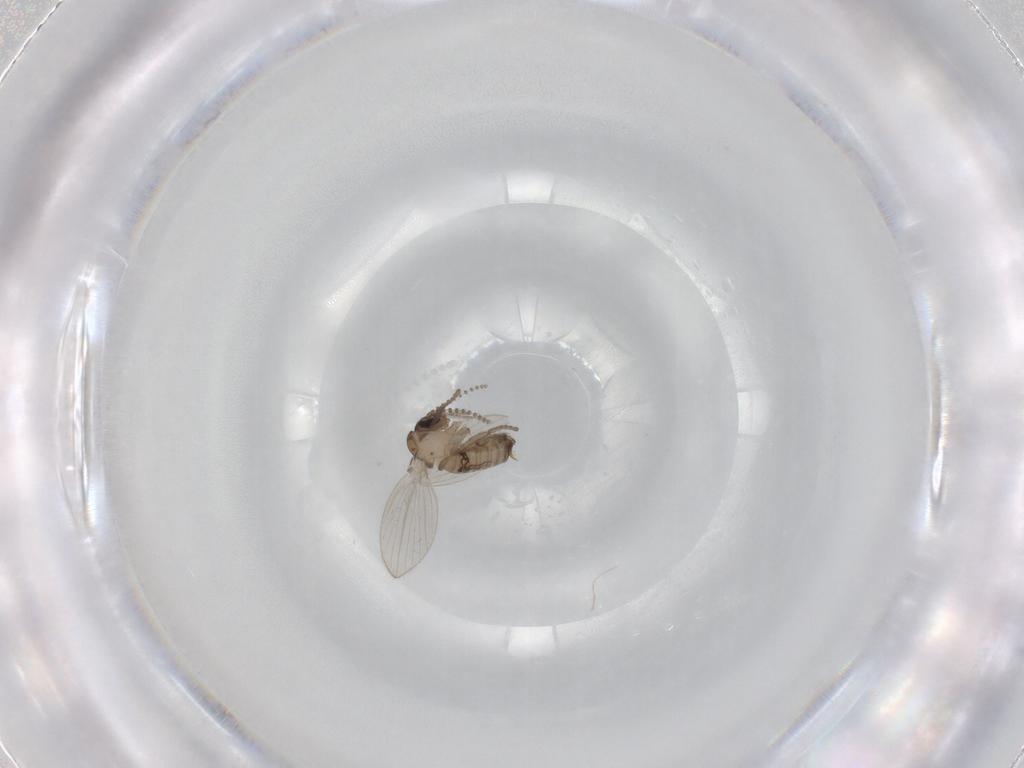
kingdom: Animalia
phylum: Arthropoda
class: Insecta
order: Diptera
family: Psychodidae
